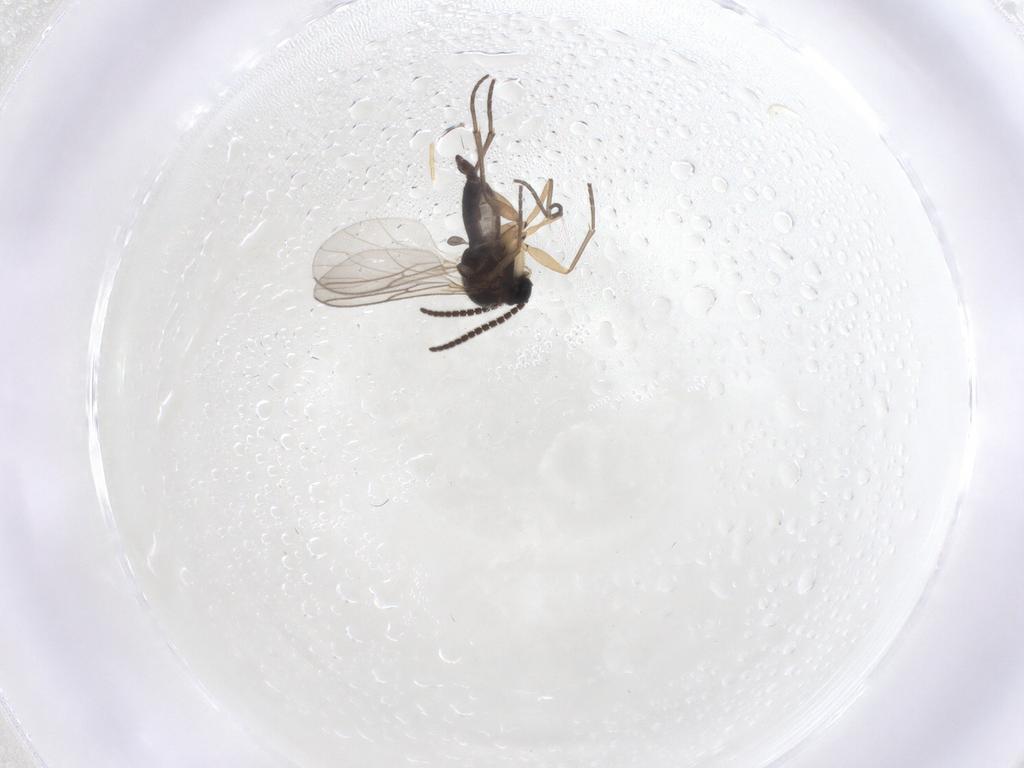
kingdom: Animalia
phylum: Arthropoda
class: Insecta
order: Diptera
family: Sciaridae
